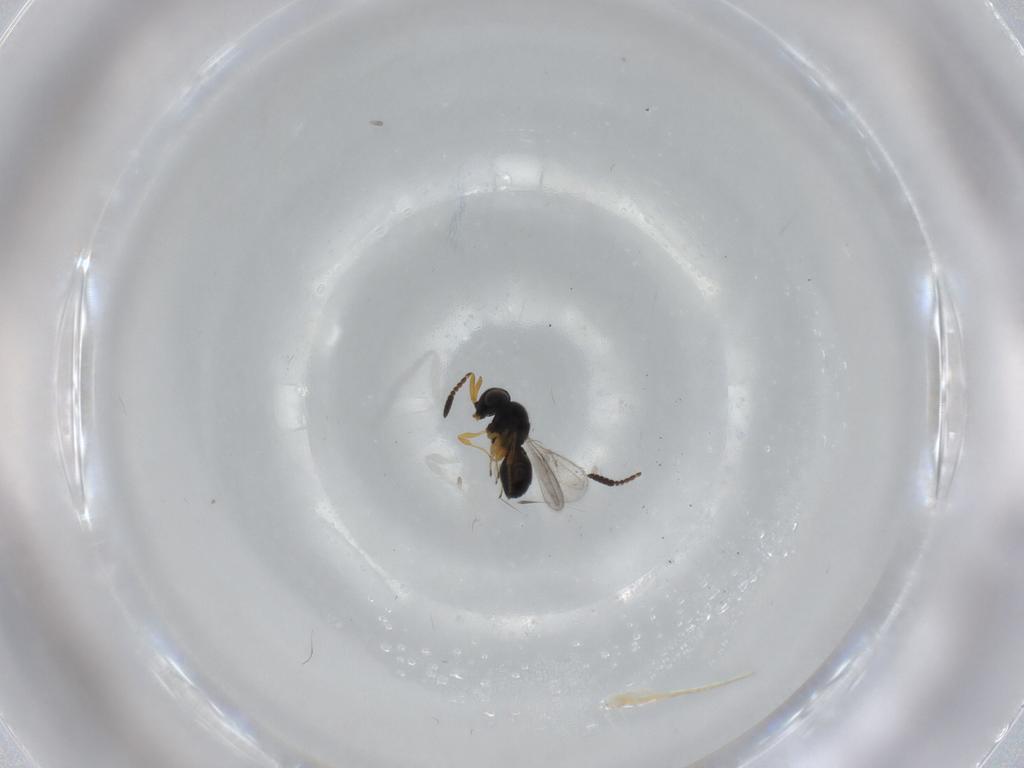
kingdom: Animalia
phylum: Arthropoda
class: Insecta
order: Hymenoptera
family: Scelionidae
